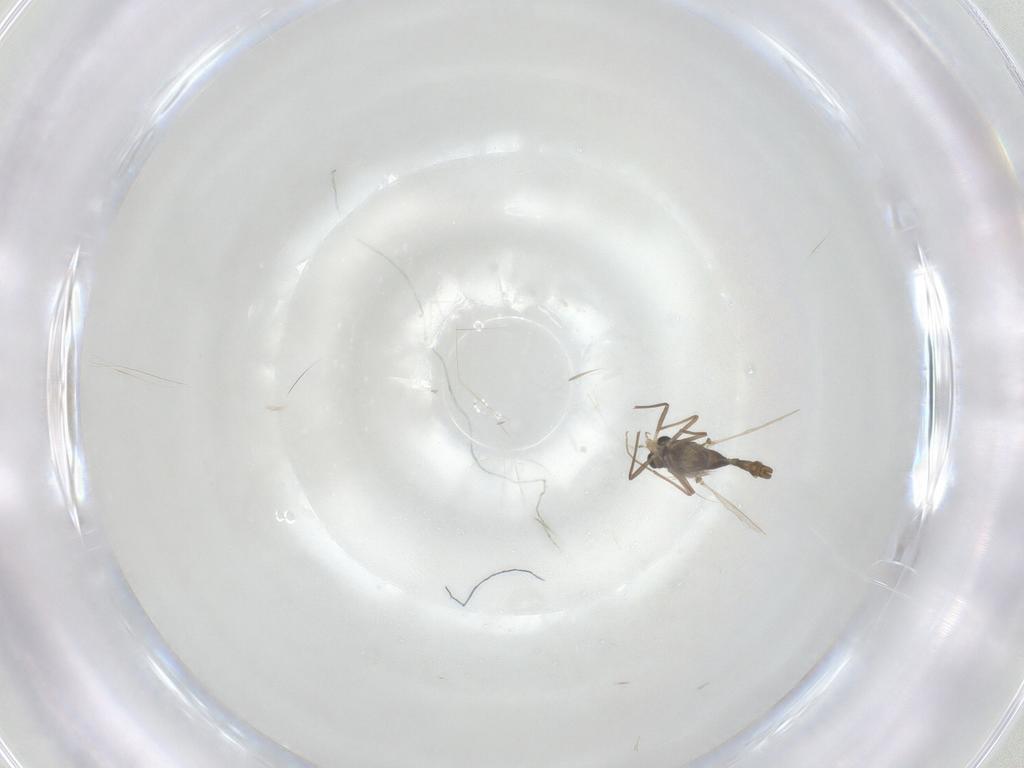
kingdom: Animalia
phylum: Arthropoda
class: Insecta
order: Diptera
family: Chironomidae
